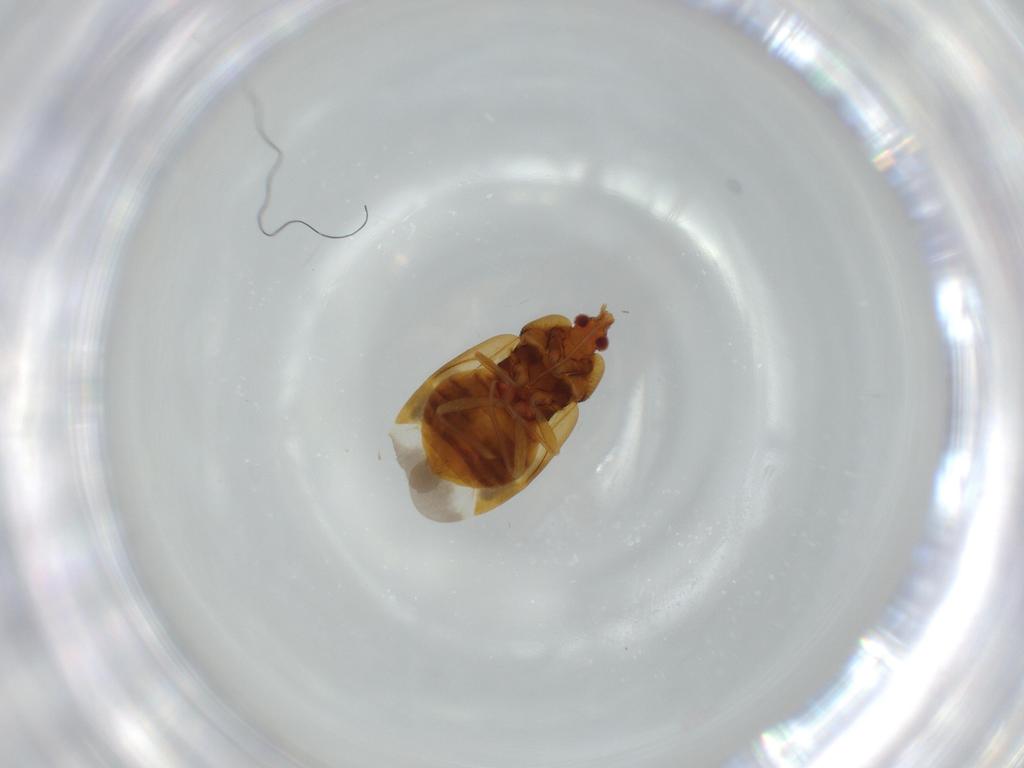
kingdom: Animalia
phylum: Arthropoda
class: Insecta
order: Hemiptera
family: Anthocoridae
